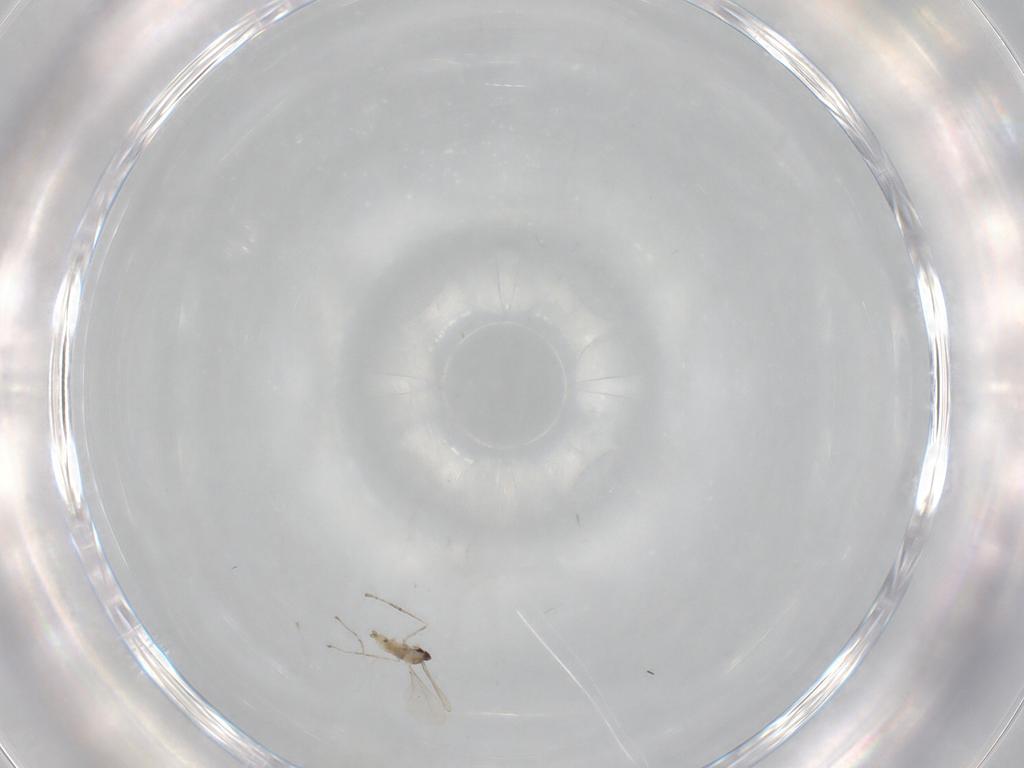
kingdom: Animalia
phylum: Arthropoda
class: Insecta
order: Diptera
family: Cecidomyiidae
